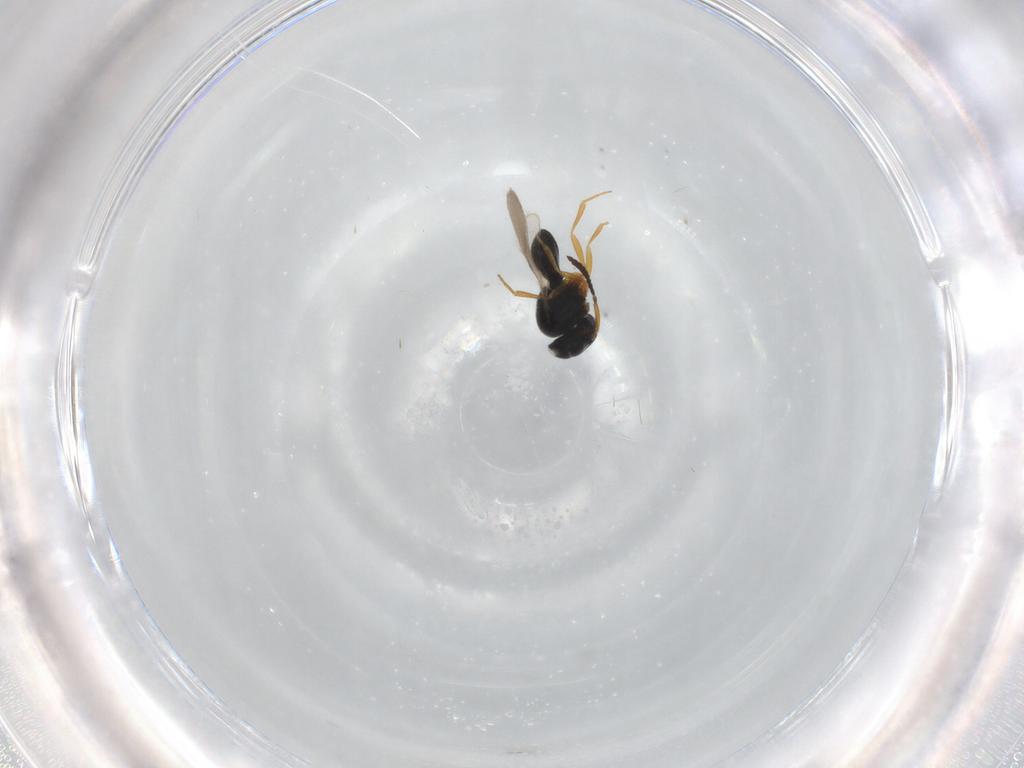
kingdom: Animalia
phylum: Arthropoda
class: Insecta
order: Hymenoptera
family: Scelionidae
